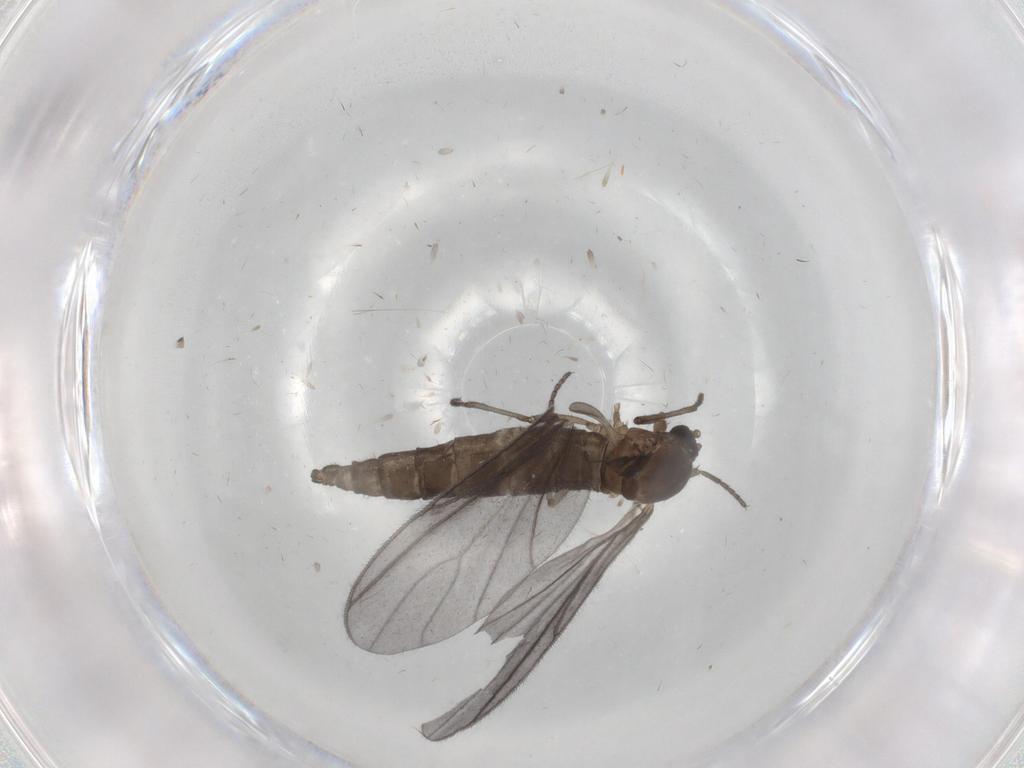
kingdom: Animalia
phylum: Arthropoda
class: Insecta
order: Diptera
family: Sciaridae
